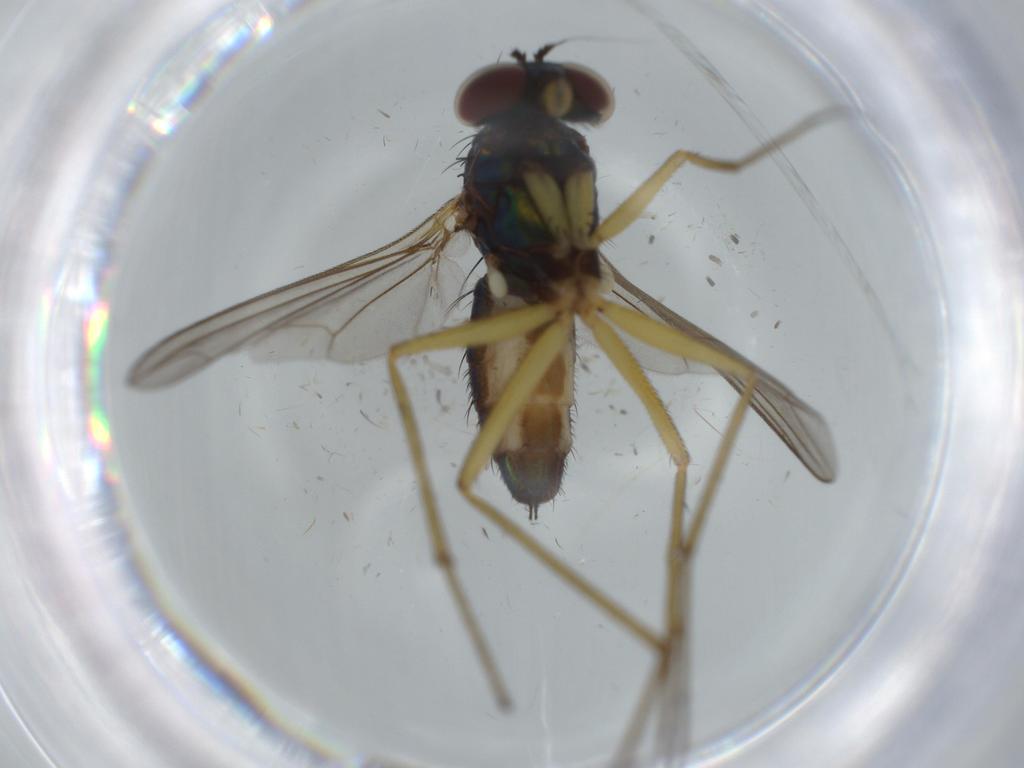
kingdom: Animalia
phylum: Arthropoda
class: Insecta
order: Diptera
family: Dolichopodidae
